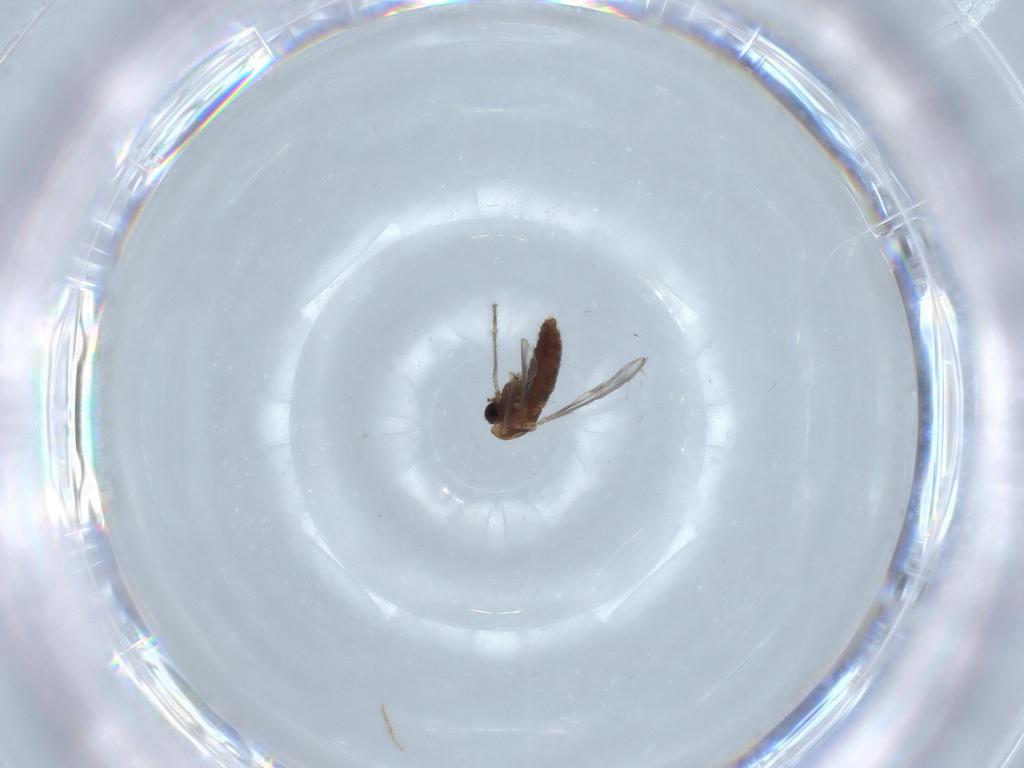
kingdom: Animalia
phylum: Arthropoda
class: Insecta
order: Diptera
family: Chironomidae
